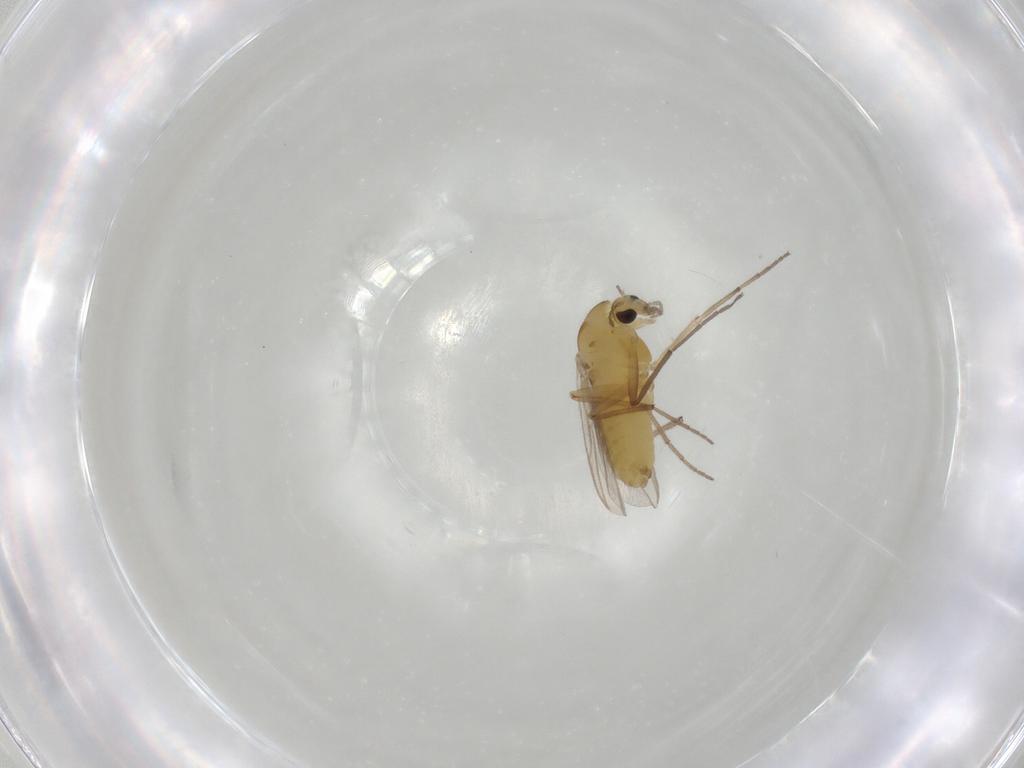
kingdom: Animalia
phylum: Arthropoda
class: Insecta
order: Diptera
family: Chironomidae
